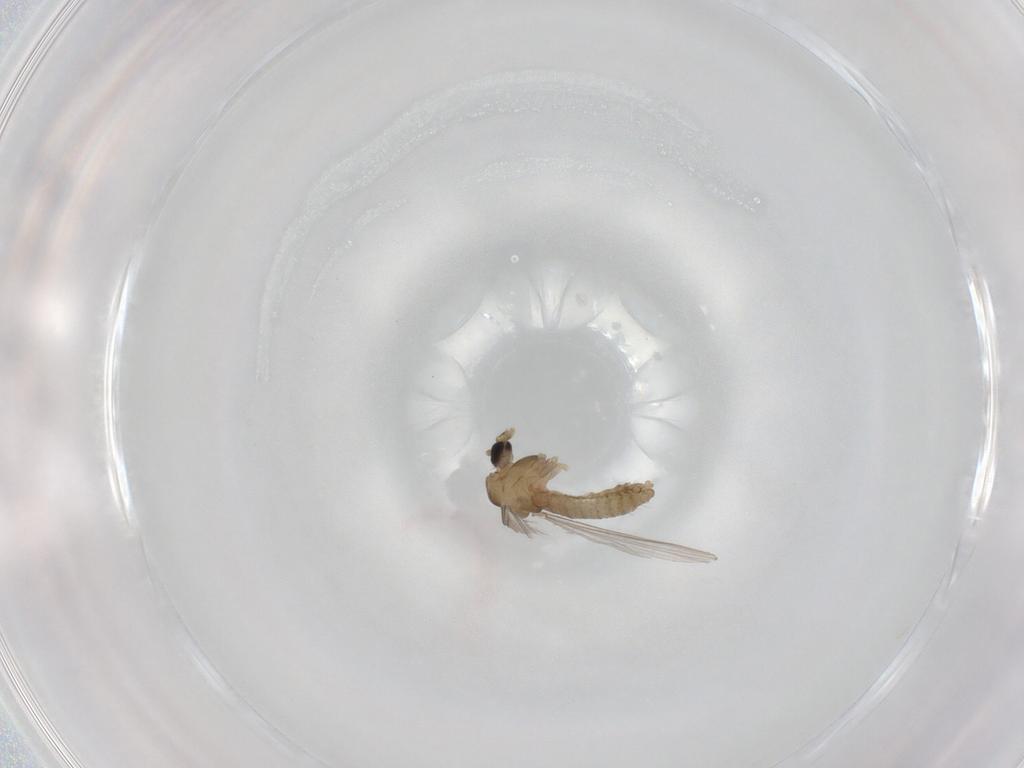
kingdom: Animalia
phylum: Arthropoda
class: Insecta
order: Diptera
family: Chironomidae
